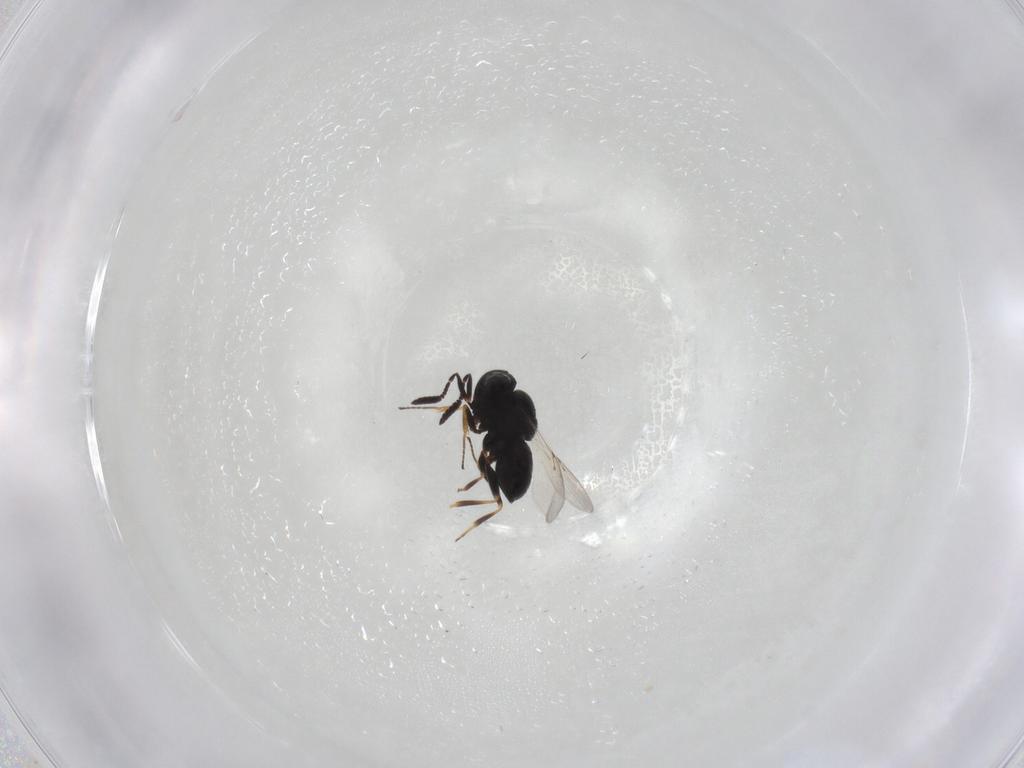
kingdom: Animalia
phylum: Arthropoda
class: Insecta
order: Hymenoptera
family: Scelionidae
